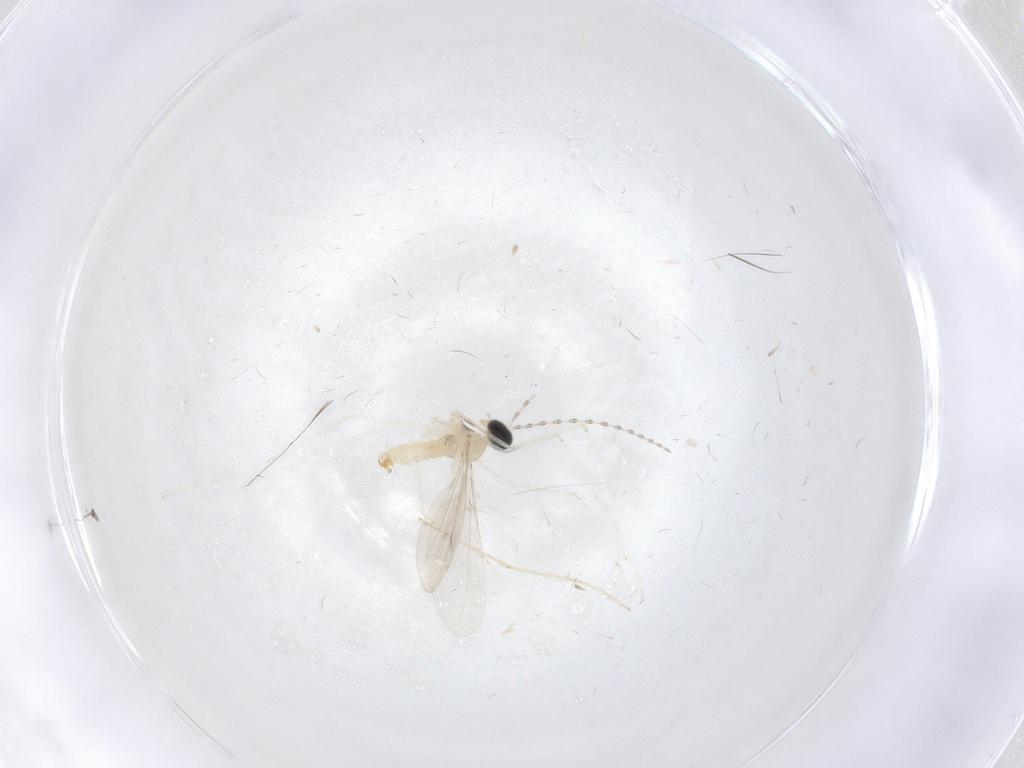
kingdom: Animalia
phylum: Arthropoda
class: Insecta
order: Diptera
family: Cecidomyiidae
